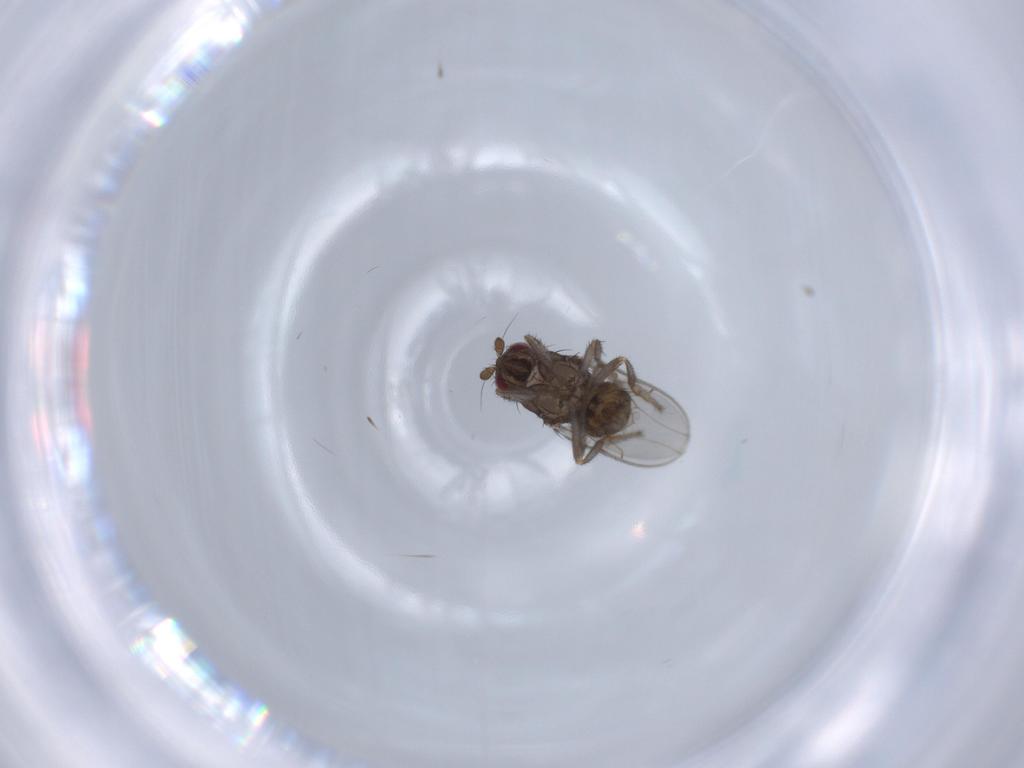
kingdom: Animalia
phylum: Arthropoda
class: Insecta
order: Diptera
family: Sphaeroceridae
